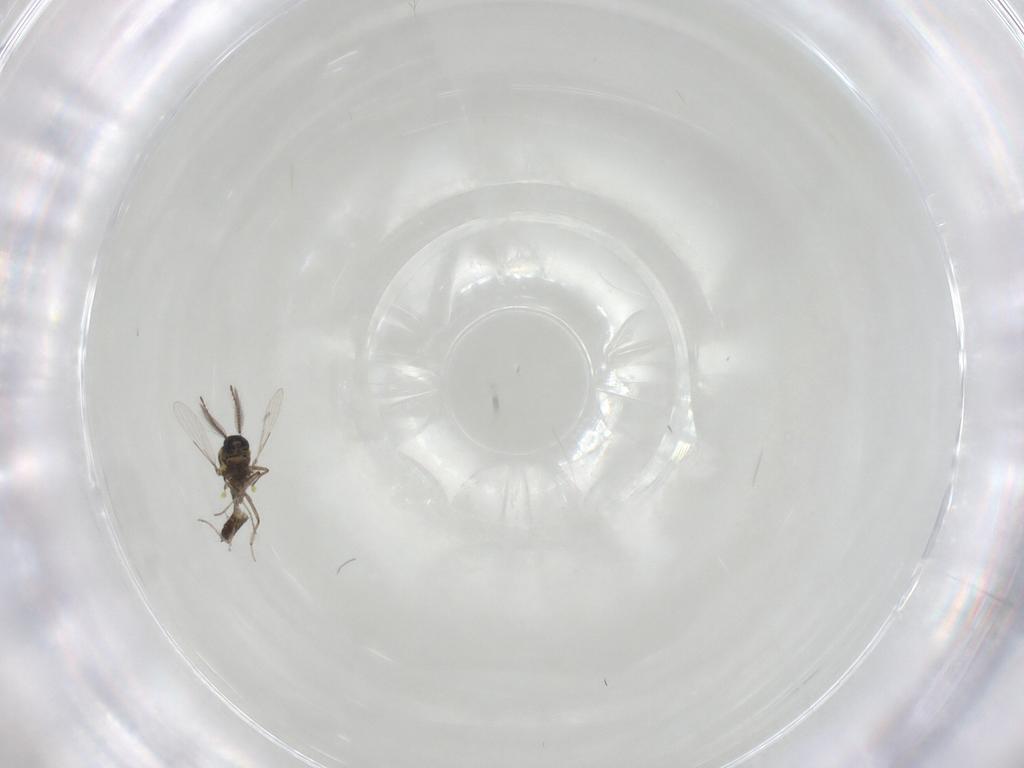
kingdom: Animalia
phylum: Arthropoda
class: Insecta
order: Diptera
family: Ceratopogonidae
